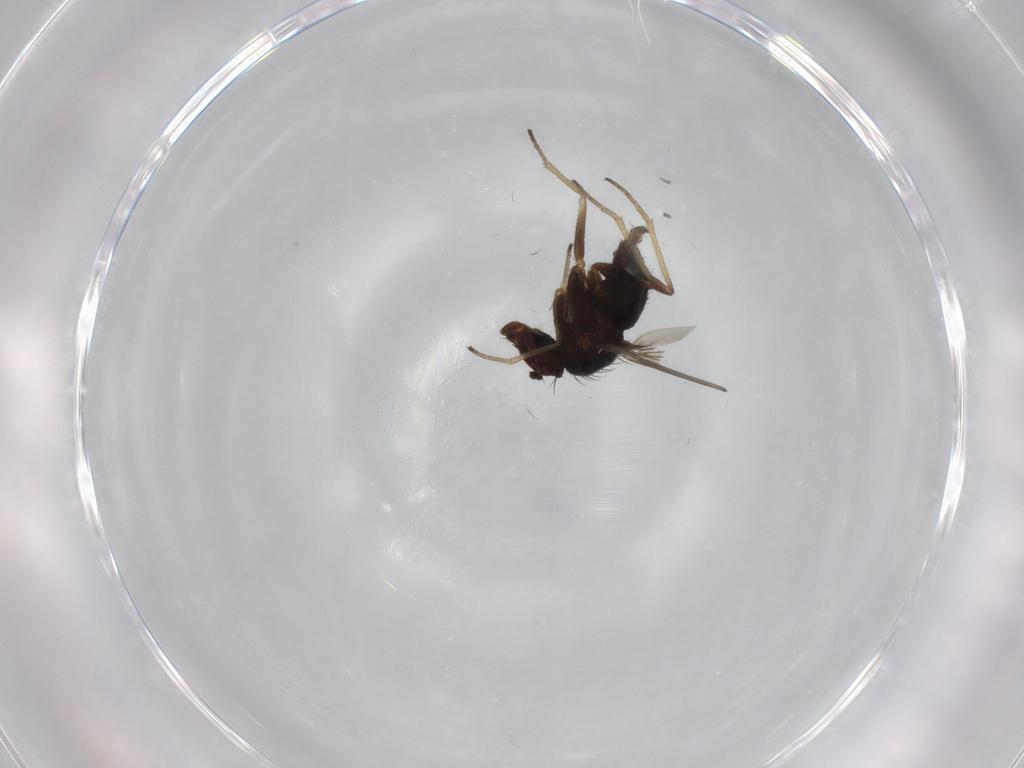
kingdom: Animalia
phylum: Arthropoda
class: Insecta
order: Diptera
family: Dolichopodidae
